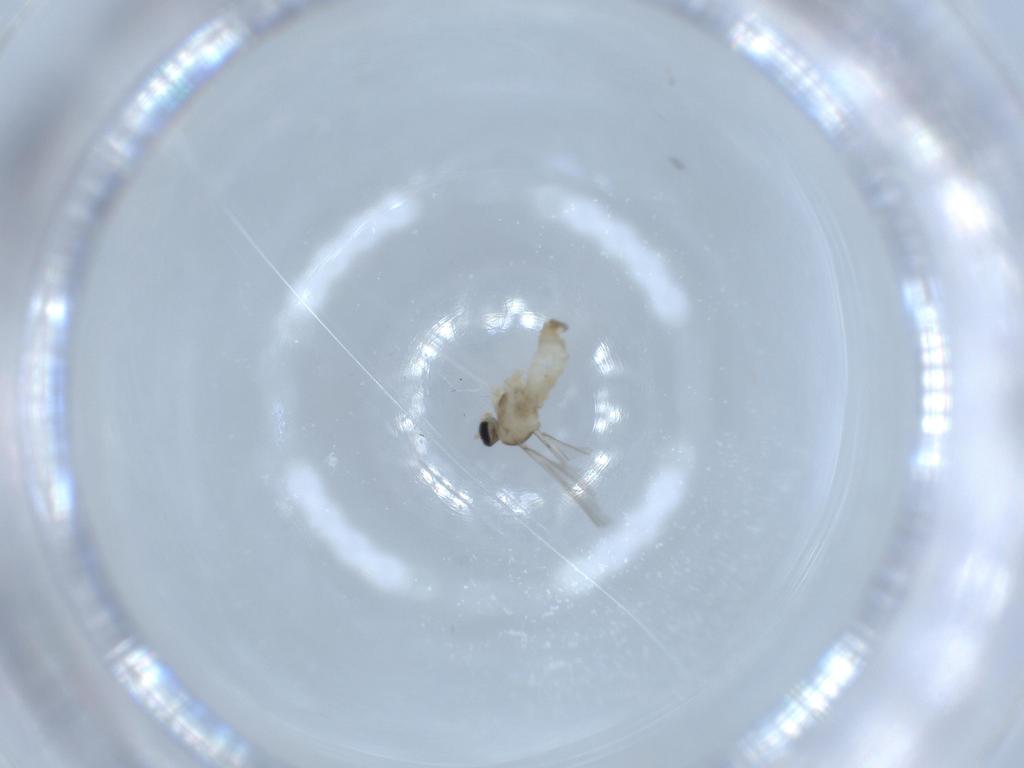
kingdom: Animalia
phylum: Arthropoda
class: Insecta
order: Diptera
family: Cecidomyiidae
